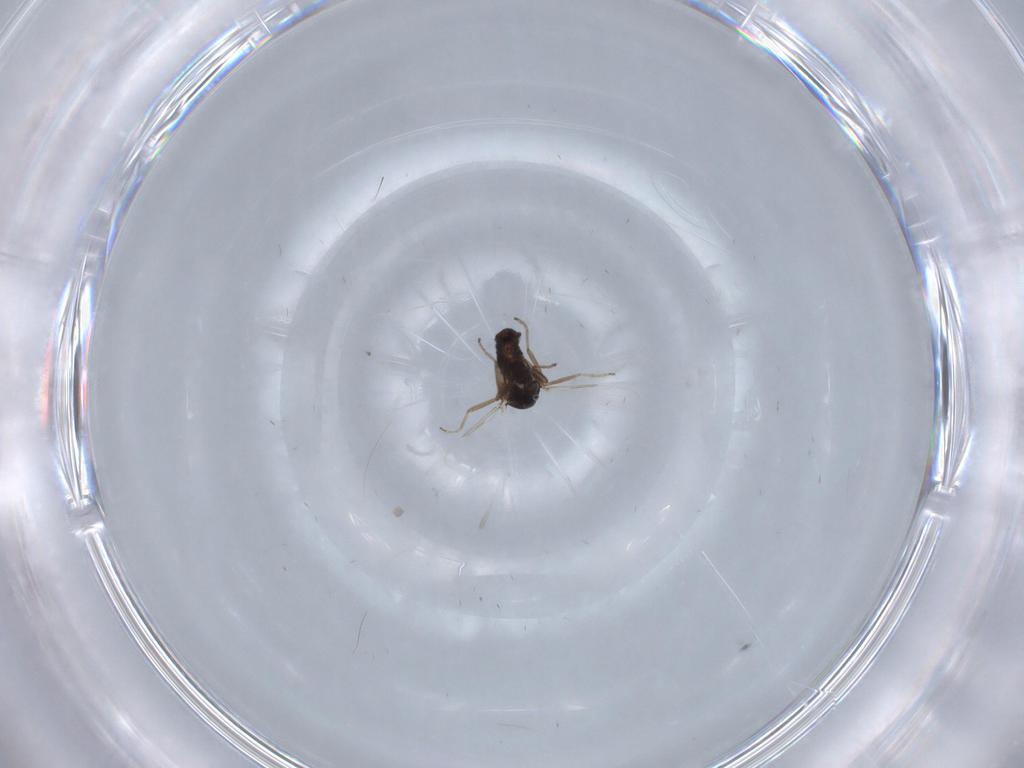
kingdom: Animalia
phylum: Arthropoda
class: Insecta
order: Diptera
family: Ceratopogonidae
